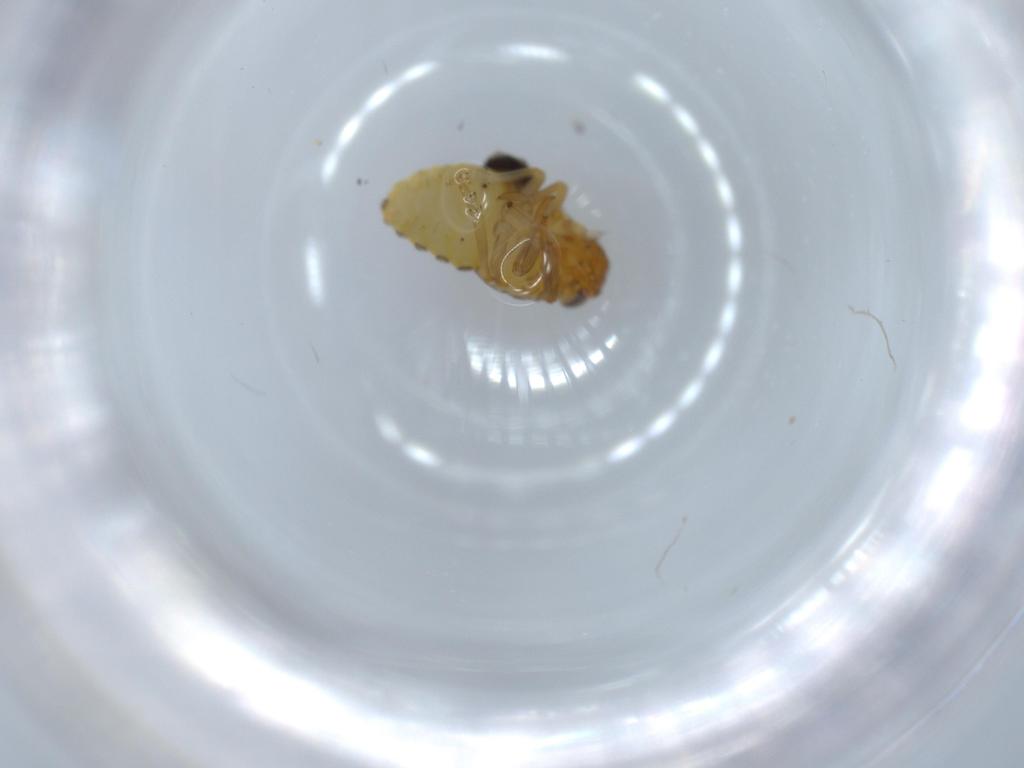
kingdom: Animalia
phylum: Arthropoda
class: Insecta
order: Hemiptera
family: Issidae
